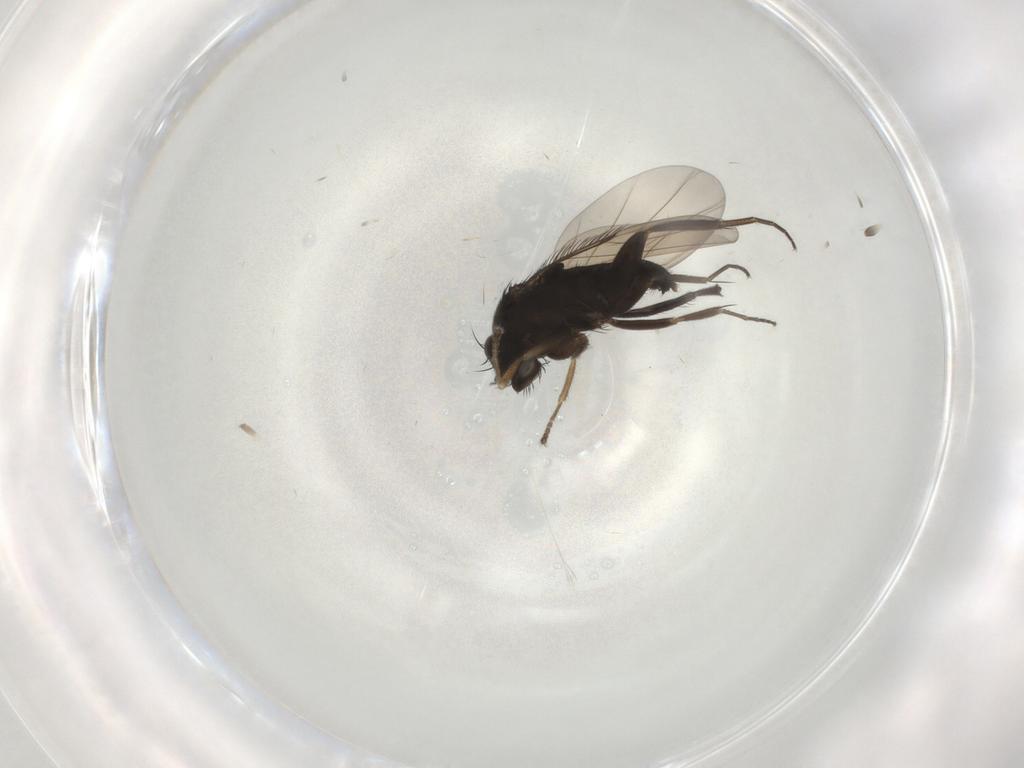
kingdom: Animalia
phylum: Arthropoda
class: Insecta
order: Diptera
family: Phoridae
